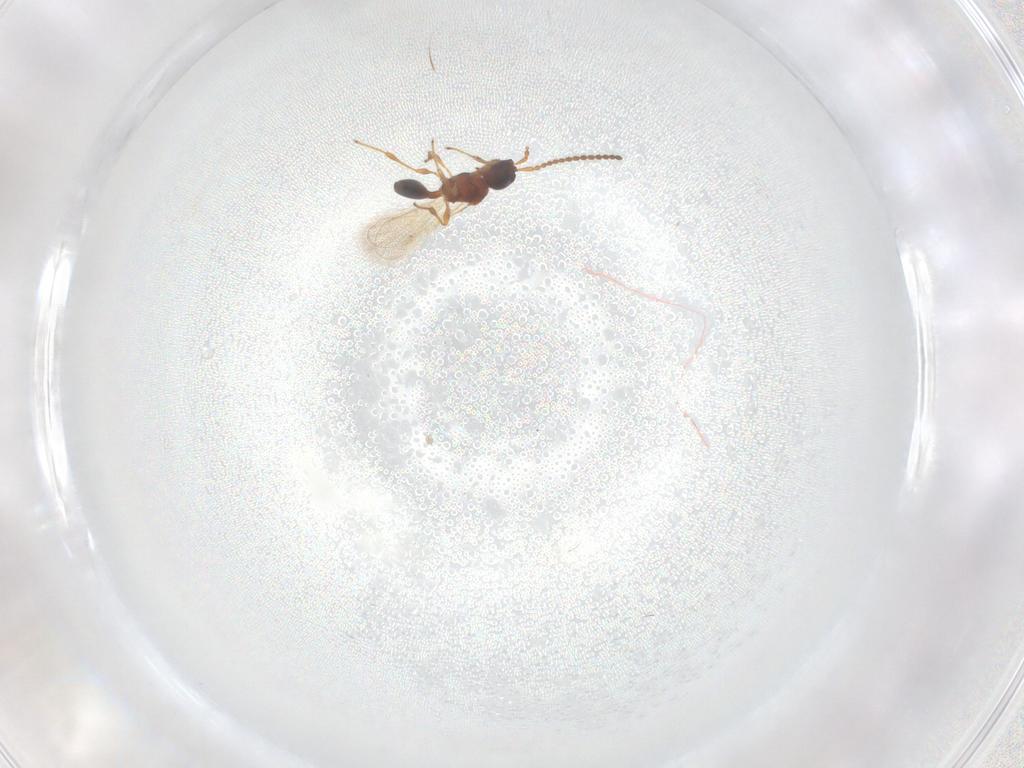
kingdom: Animalia
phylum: Arthropoda
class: Insecta
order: Hymenoptera
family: Diapriidae
